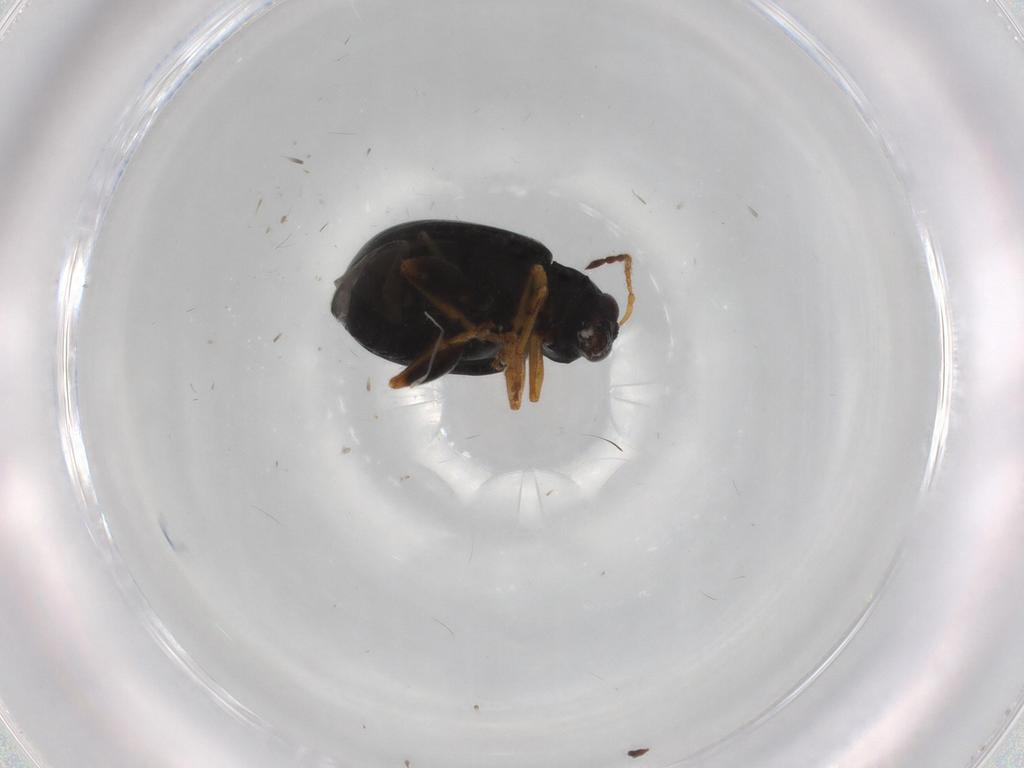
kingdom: Animalia
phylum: Arthropoda
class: Insecta
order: Coleoptera
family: Chrysomelidae
